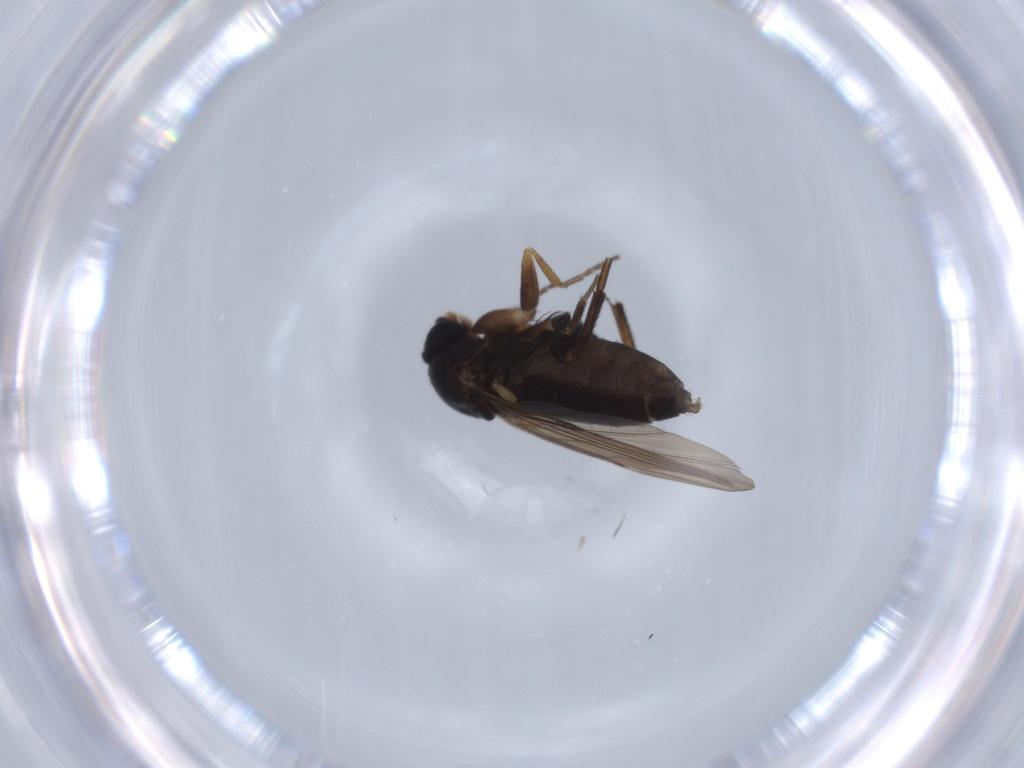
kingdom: Animalia
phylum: Arthropoda
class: Insecta
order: Diptera
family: Phoridae
